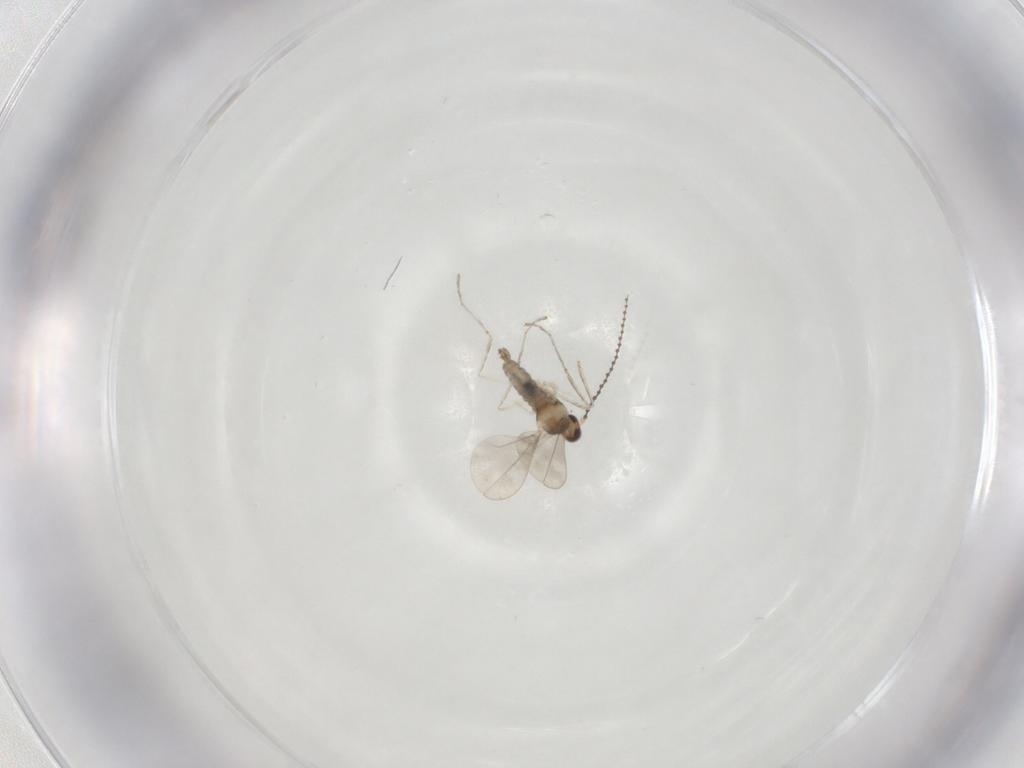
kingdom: Animalia
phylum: Arthropoda
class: Insecta
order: Diptera
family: Cecidomyiidae
